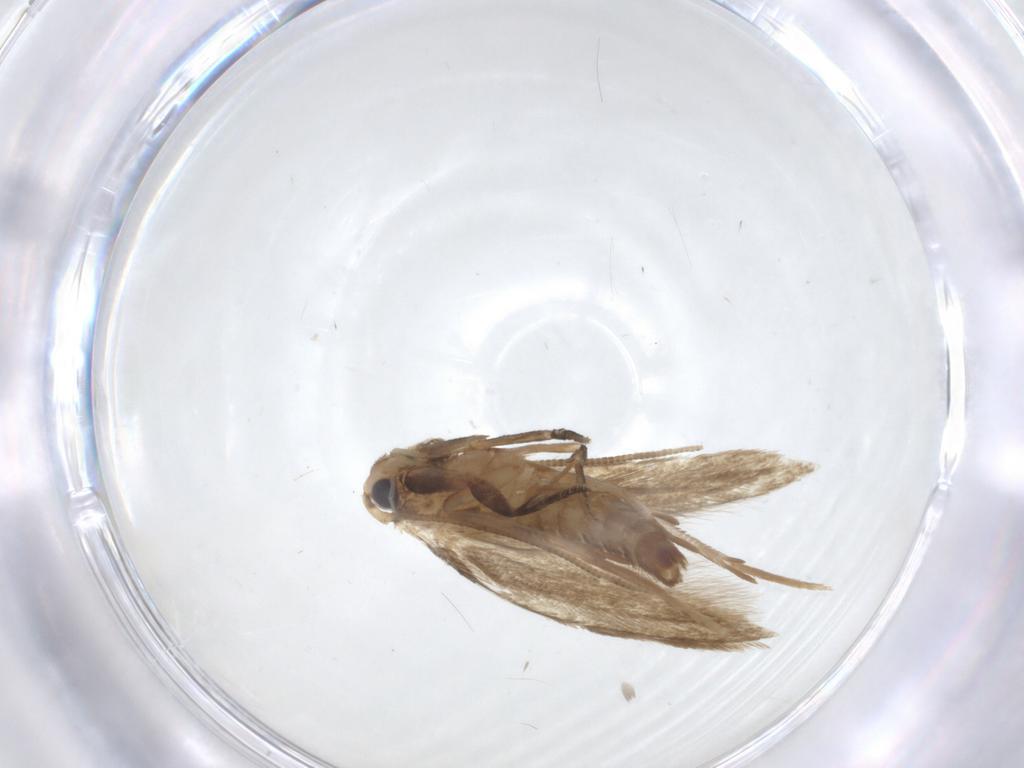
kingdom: Animalia
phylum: Arthropoda
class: Insecta
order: Lepidoptera
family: Tineidae
